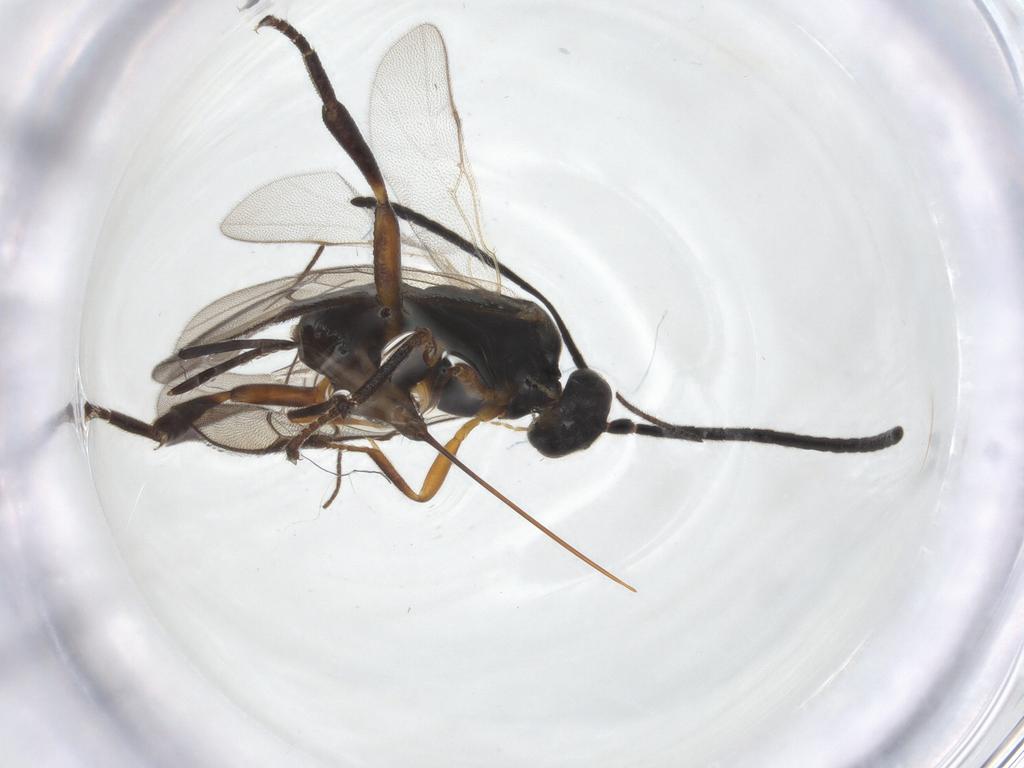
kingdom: Animalia
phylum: Arthropoda
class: Insecta
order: Hymenoptera
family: Braconidae
